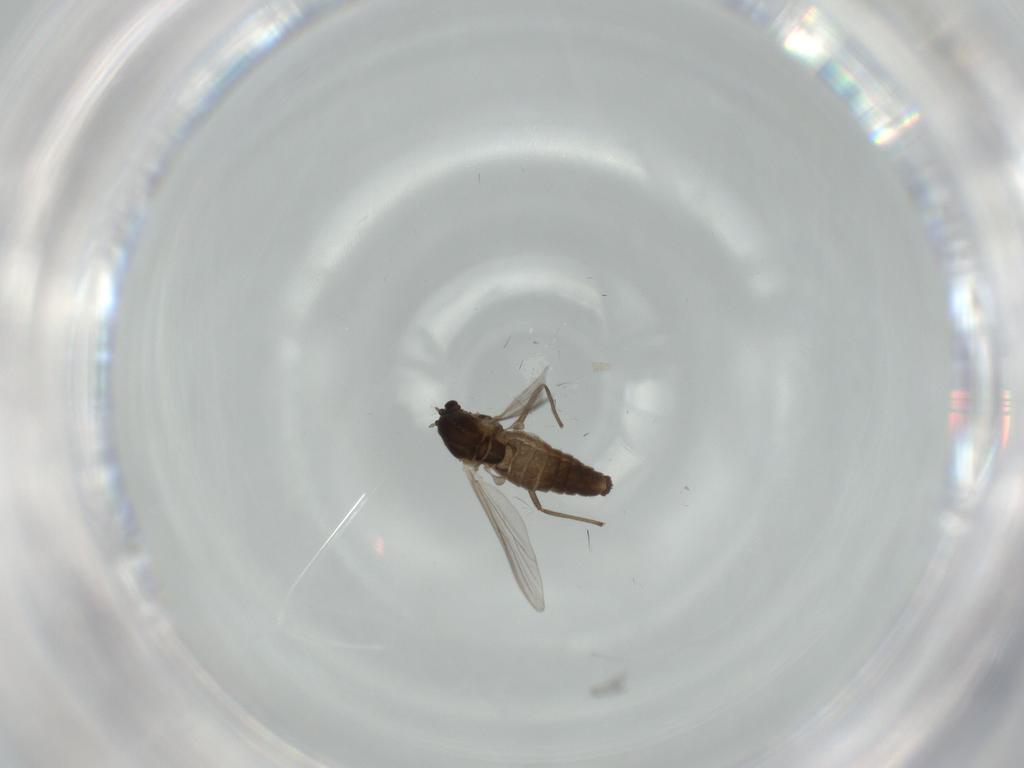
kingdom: Animalia
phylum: Arthropoda
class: Insecta
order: Diptera
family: Chironomidae
